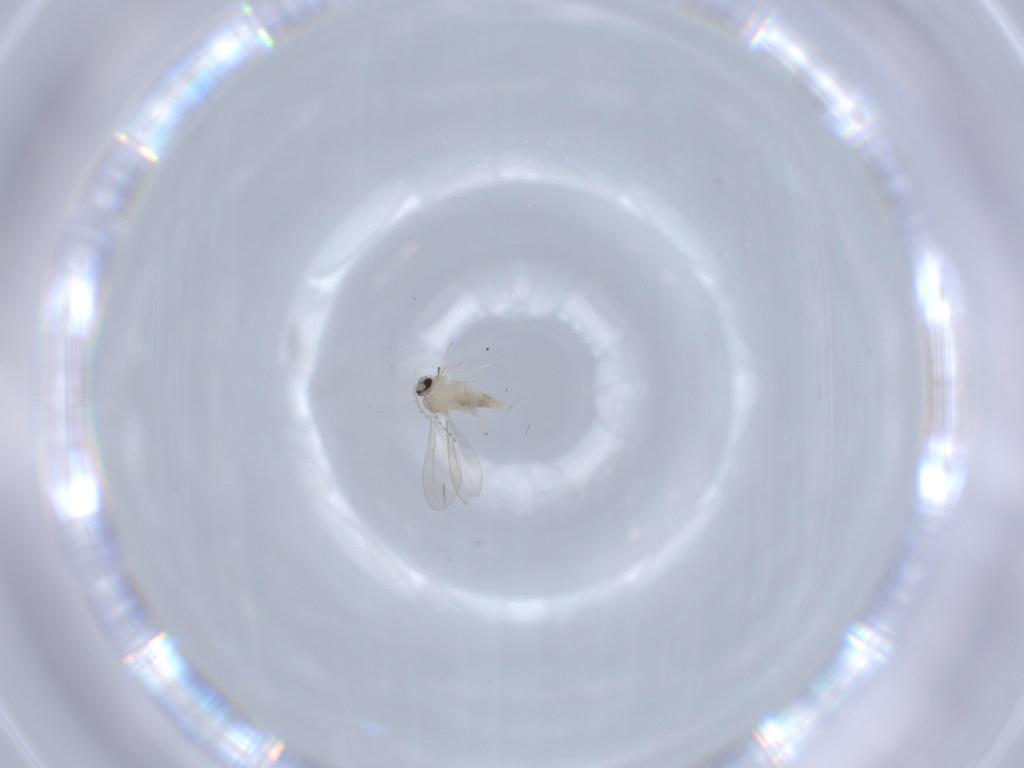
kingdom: Animalia
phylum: Arthropoda
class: Insecta
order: Diptera
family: Cecidomyiidae
